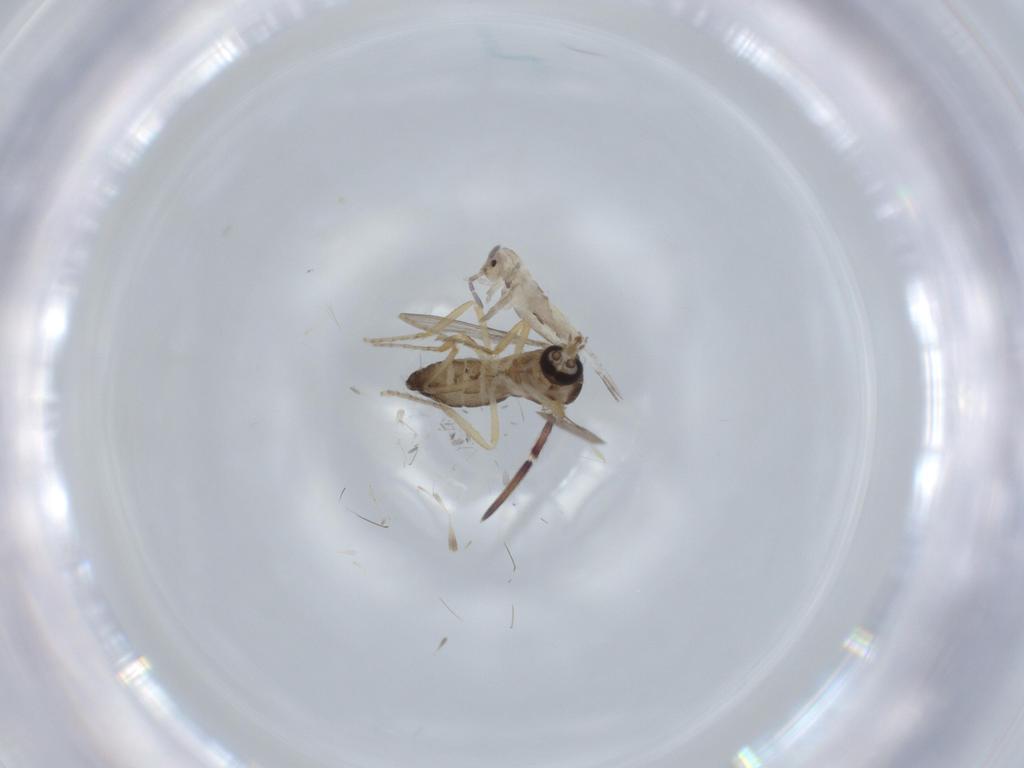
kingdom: Animalia
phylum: Arthropoda
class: Insecta
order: Diptera
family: Ceratopogonidae
